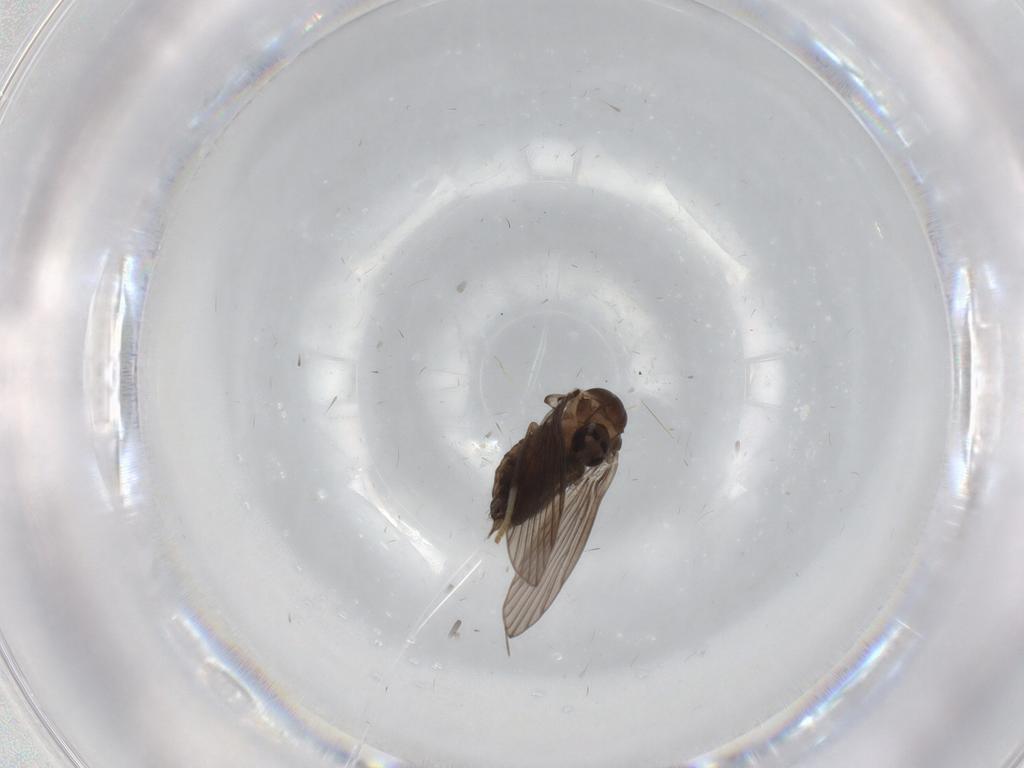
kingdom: Animalia
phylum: Arthropoda
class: Insecta
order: Diptera
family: Psychodidae
